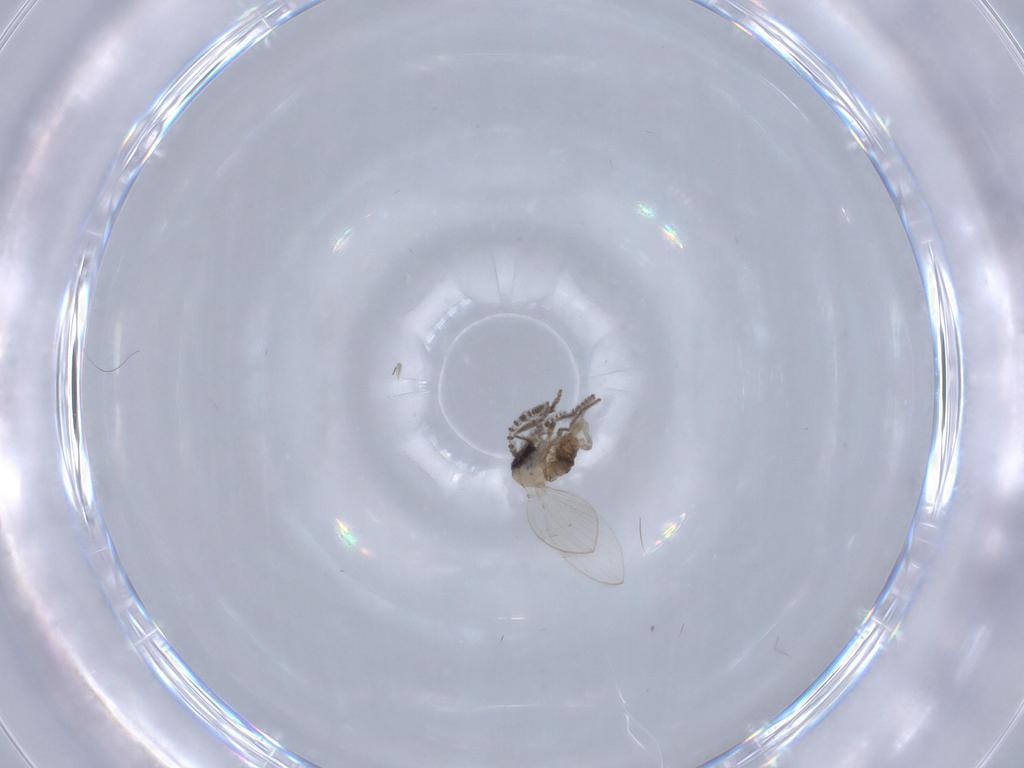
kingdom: Animalia
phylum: Arthropoda
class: Insecta
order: Diptera
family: Psychodidae
